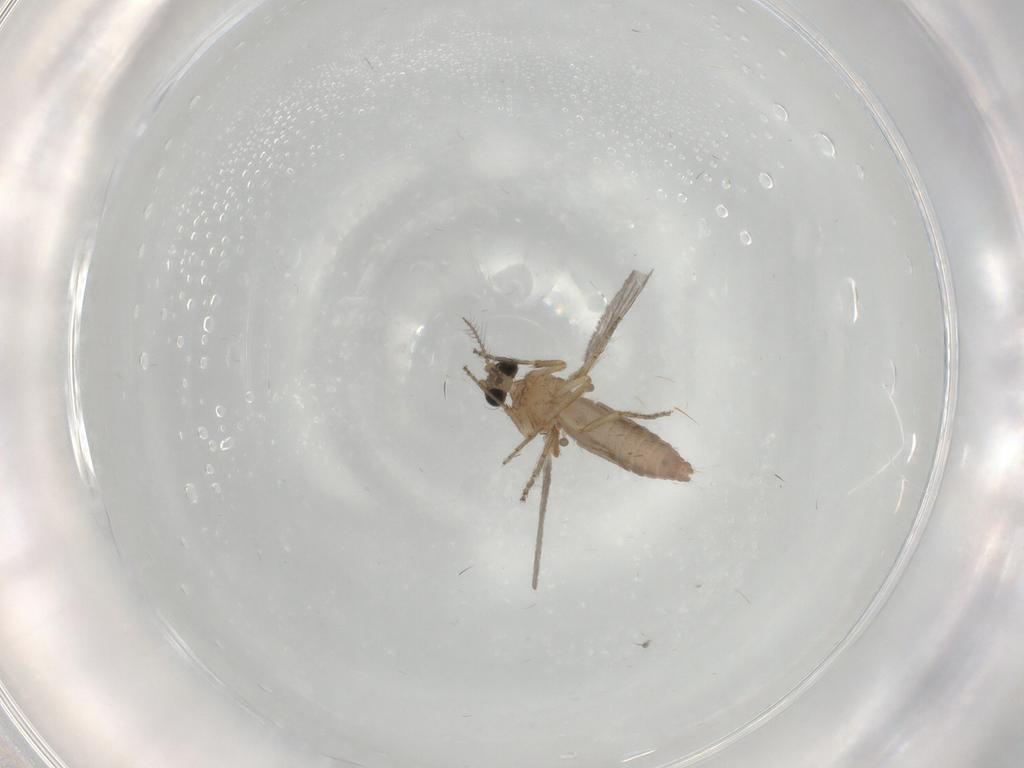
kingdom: Animalia
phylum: Arthropoda
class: Insecta
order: Diptera
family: Ceratopogonidae
